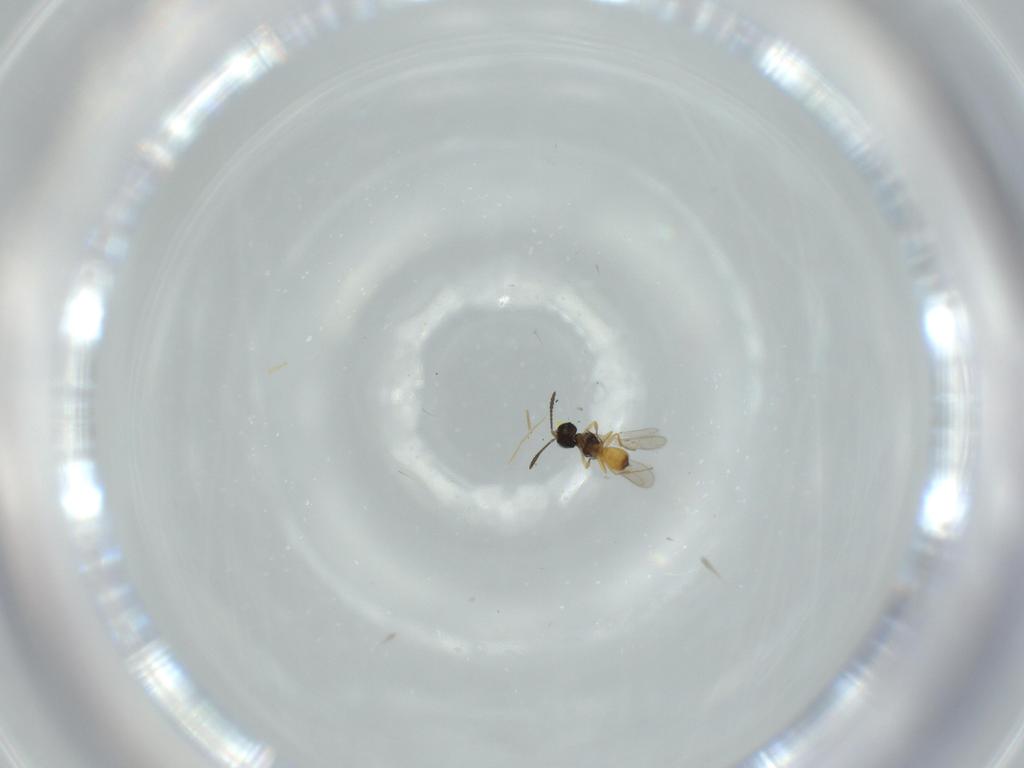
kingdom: Animalia
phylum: Arthropoda
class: Insecta
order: Hymenoptera
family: Scelionidae
